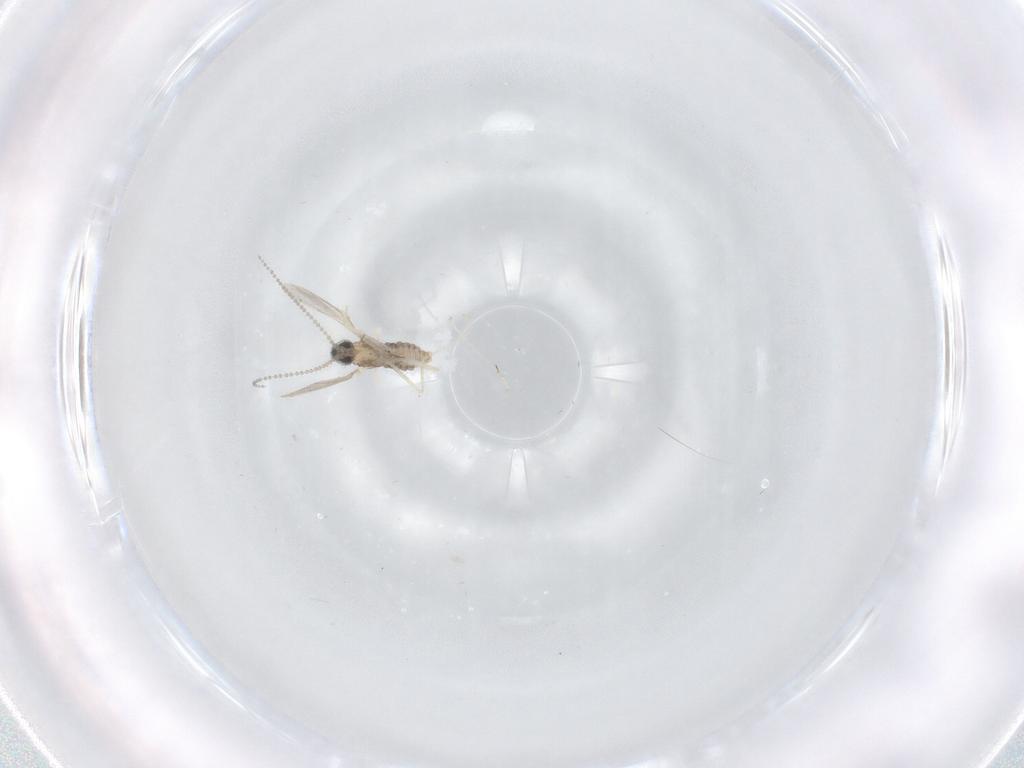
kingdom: Animalia
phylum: Arthropoda
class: Insecta
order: Diptera
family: Cecidomyiidae
